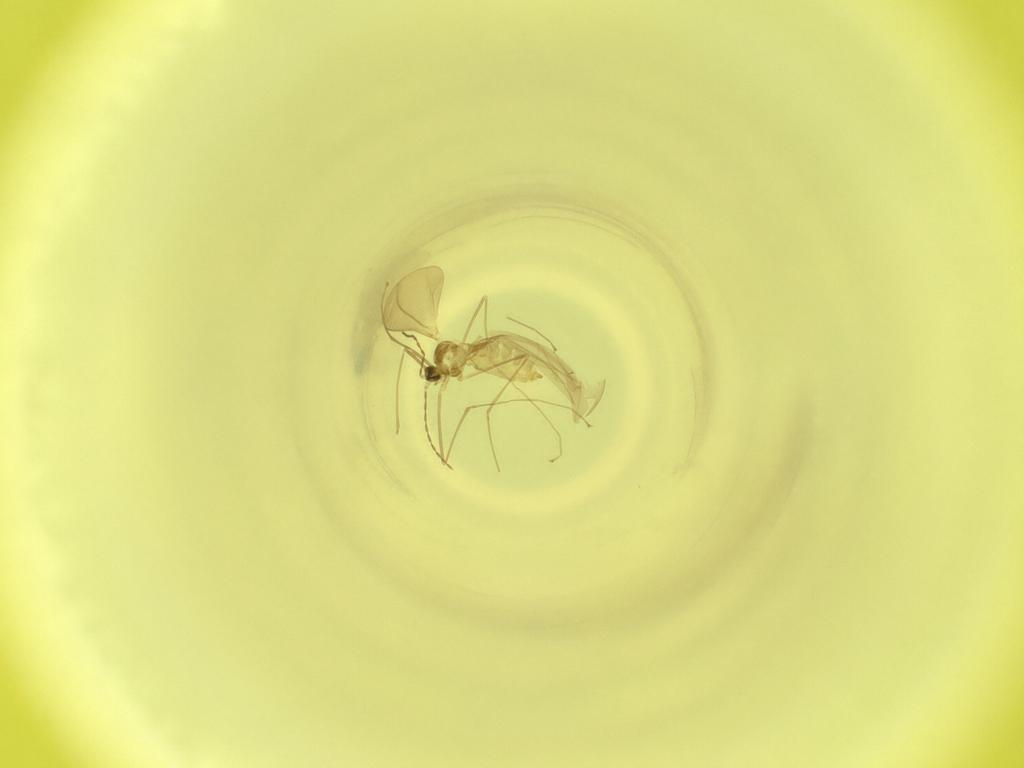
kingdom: Animalia
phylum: Arthropoda
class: Insecta
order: Diptera
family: Cecidomyiidae
